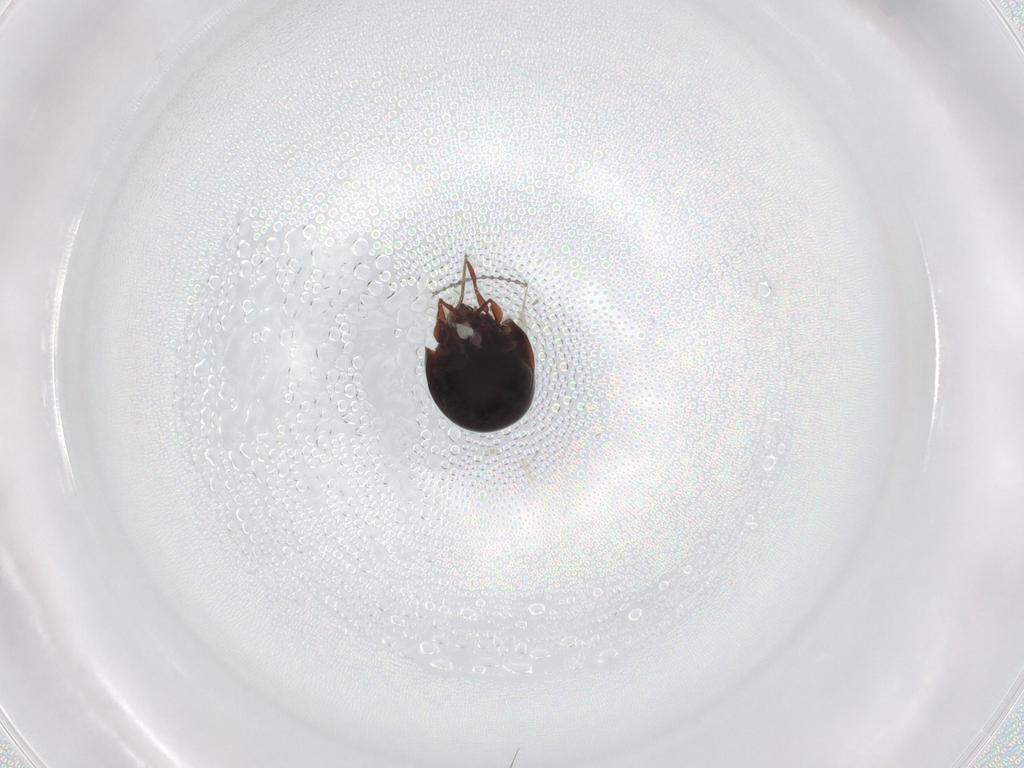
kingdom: Animalia
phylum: Arthropoda
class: Arachnida
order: Sarcoptiformes
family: Mochlozetidae
